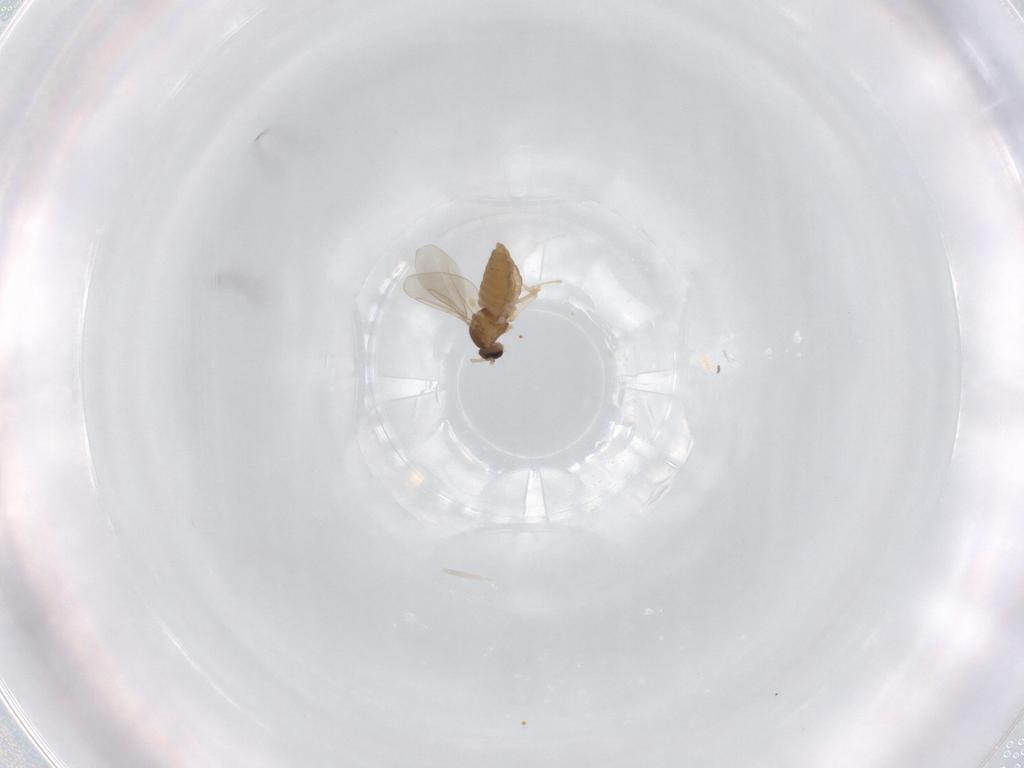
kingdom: Animalia
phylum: Arthropoda
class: Insecta
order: Diptera
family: Cecidomyiidae
